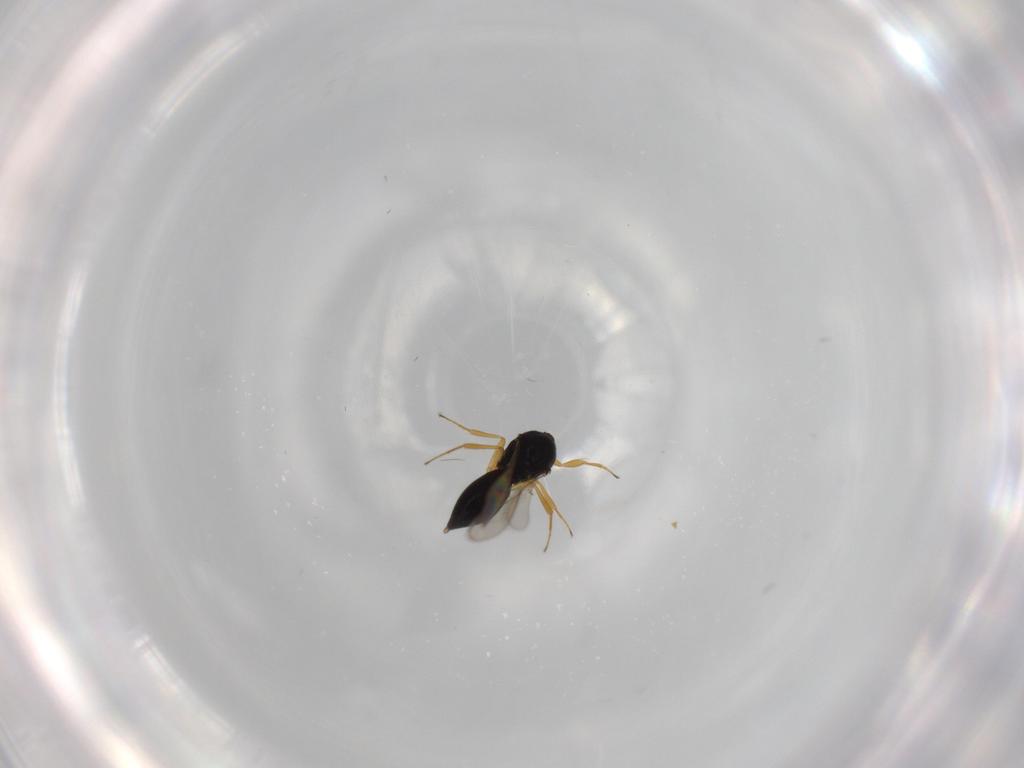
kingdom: Animalia
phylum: Arthropoda
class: Insecta
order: Hymenoptera
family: Scelionidae
